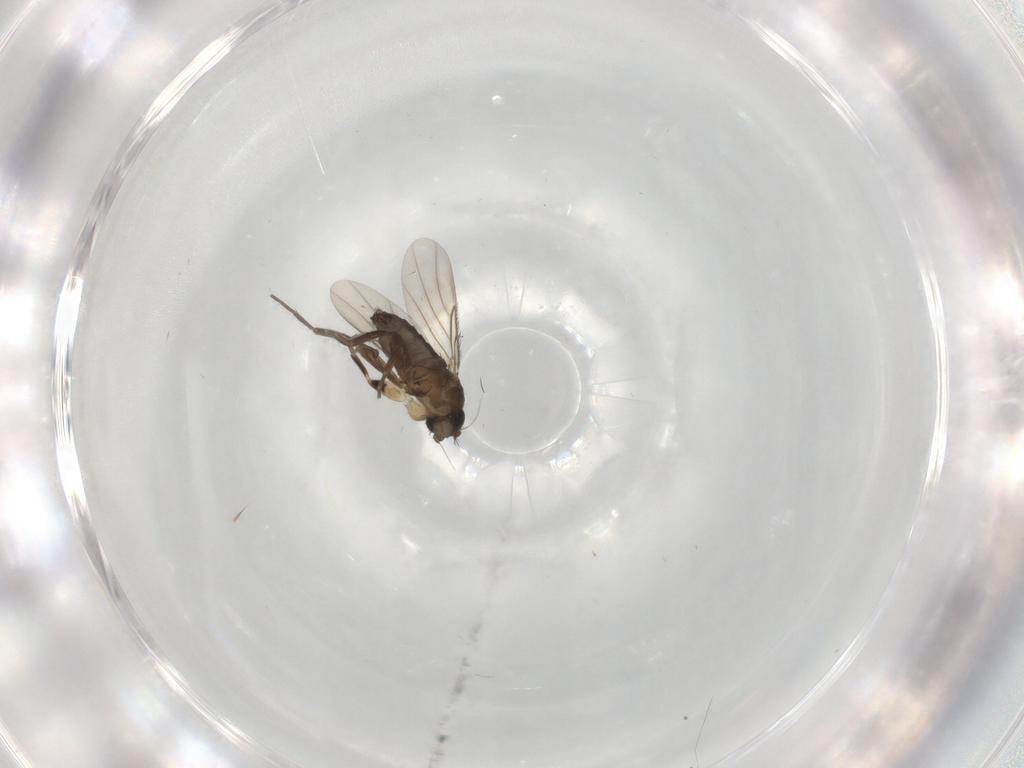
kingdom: Animalia
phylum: Arthropoda
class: Insecta
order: Diptera
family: Phoridae
